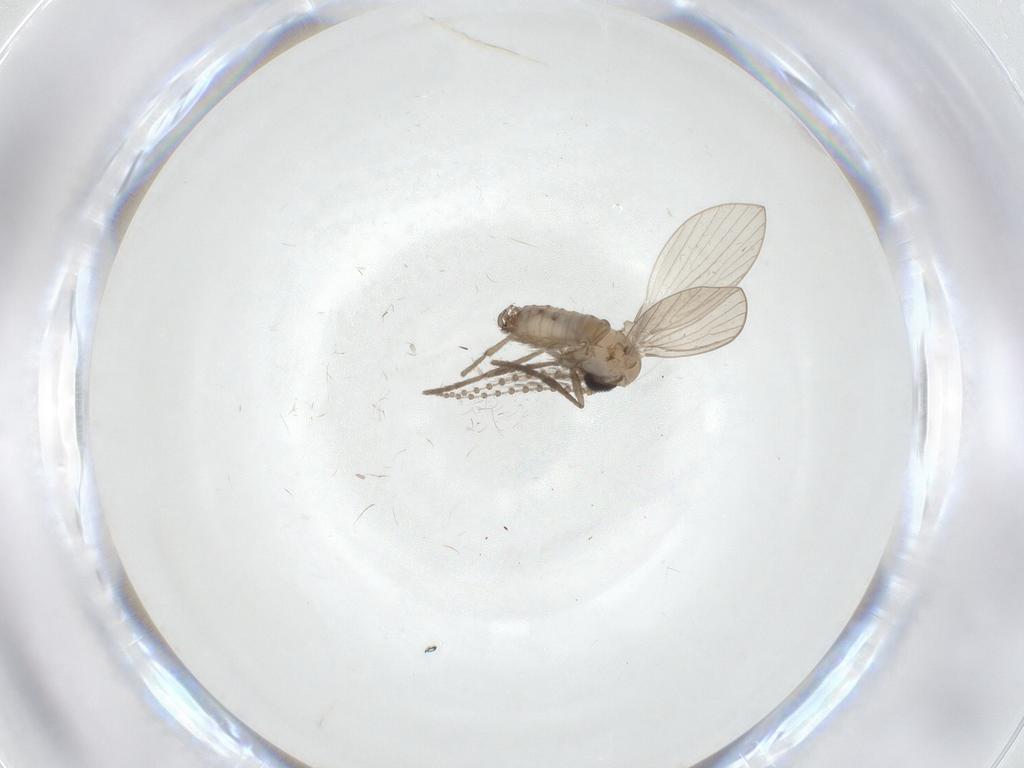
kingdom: Animalia
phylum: Arthropoda
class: Insecta
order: Diptera
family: Psychodidae
